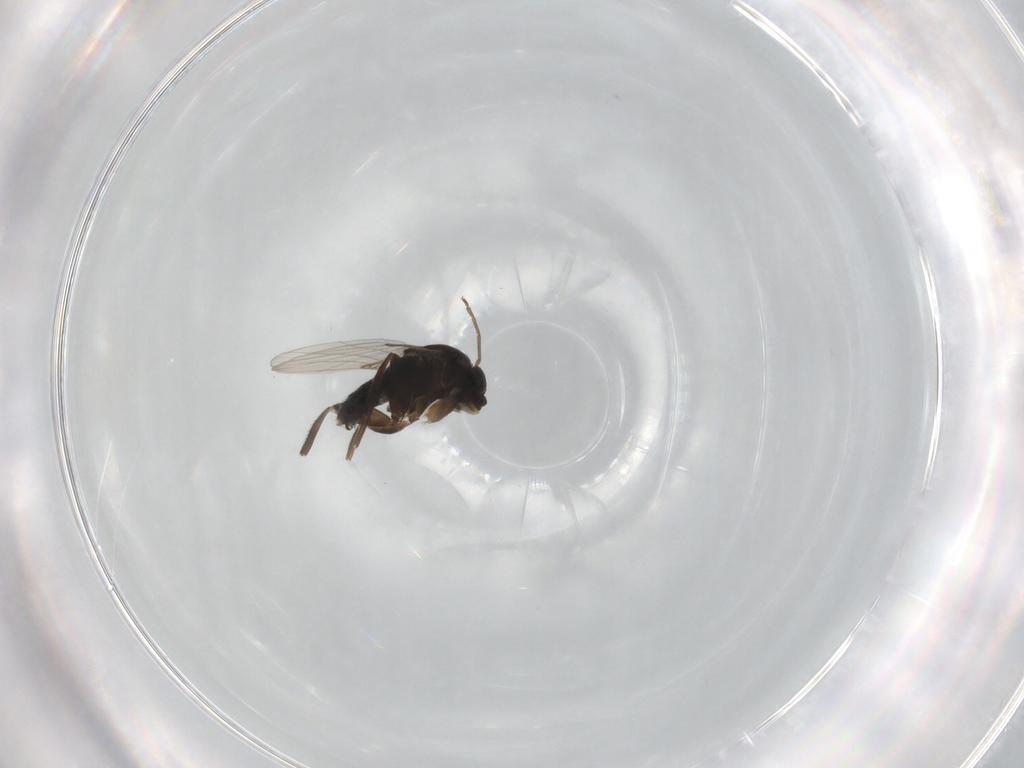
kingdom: Animalia
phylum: Arthropoda
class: Insecta
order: Diptera
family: Phoridae
